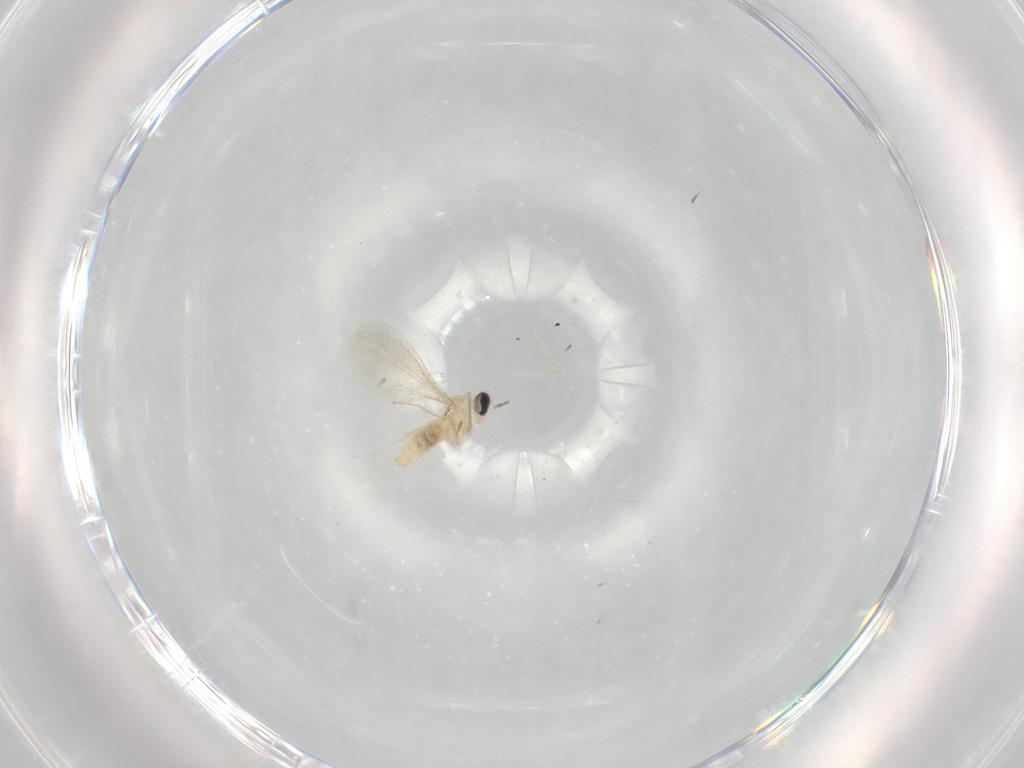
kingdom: Animalia
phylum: Arthropoda
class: Insecta
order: Diptera
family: Cecidomyiidae
